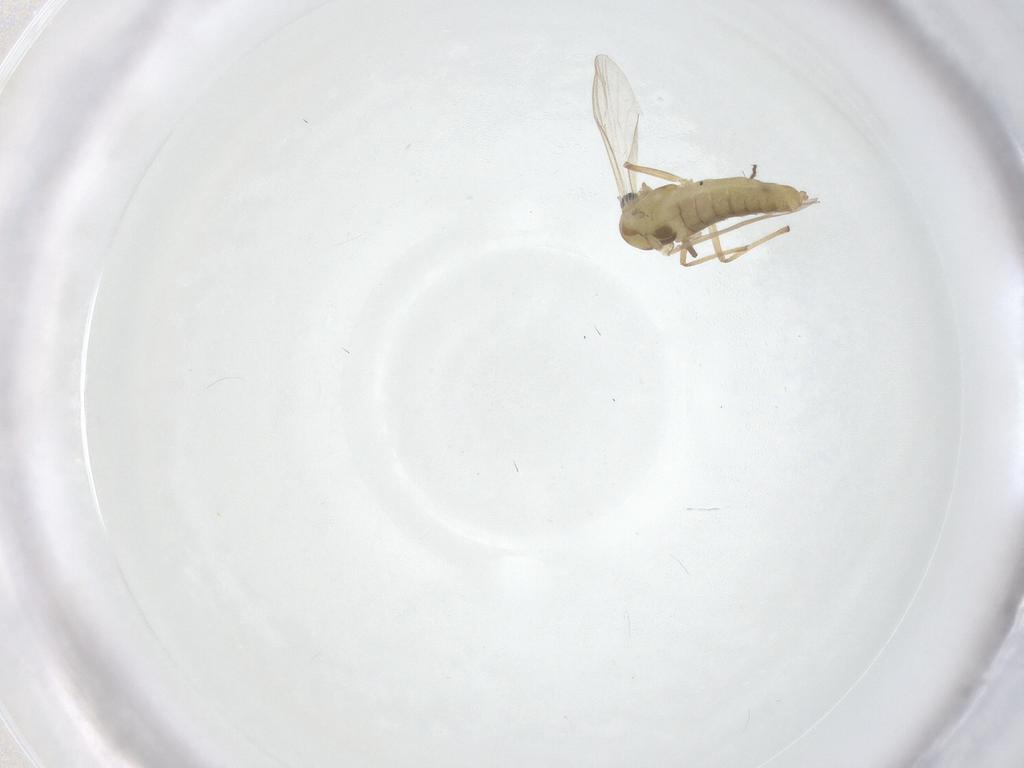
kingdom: Animalia
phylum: Arthropoda
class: Insecta
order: Diptera
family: Chironomidae
